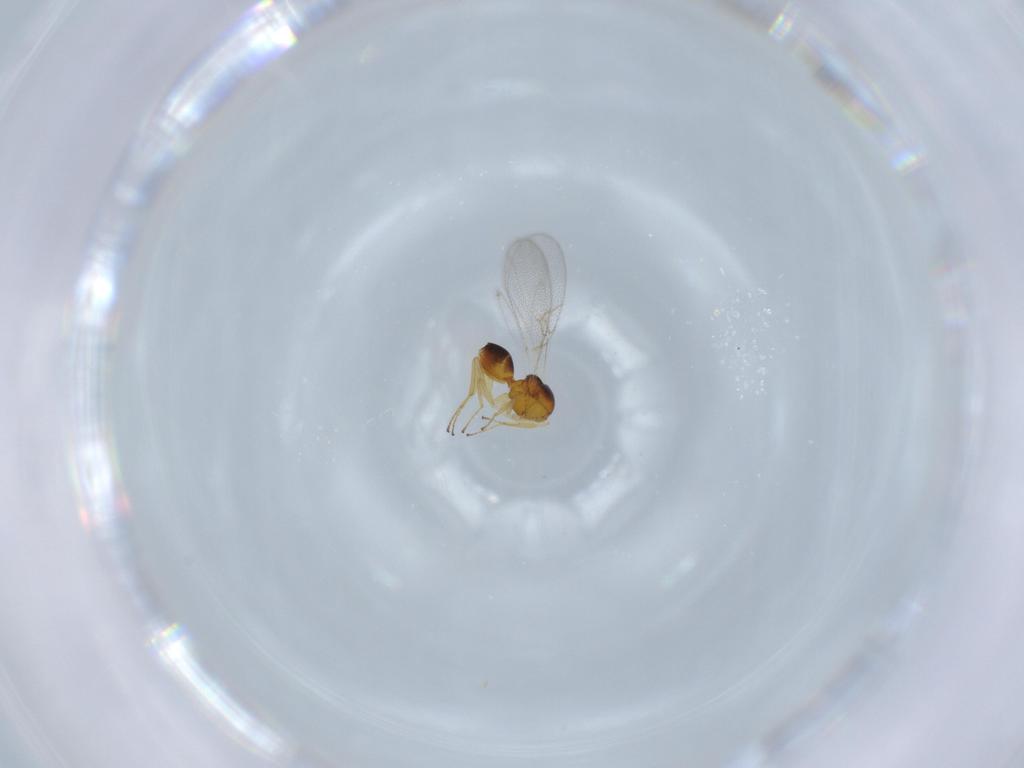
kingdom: Animalia
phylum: Arthropoda
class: Insecta
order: Hymenoptera
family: Figitidae
